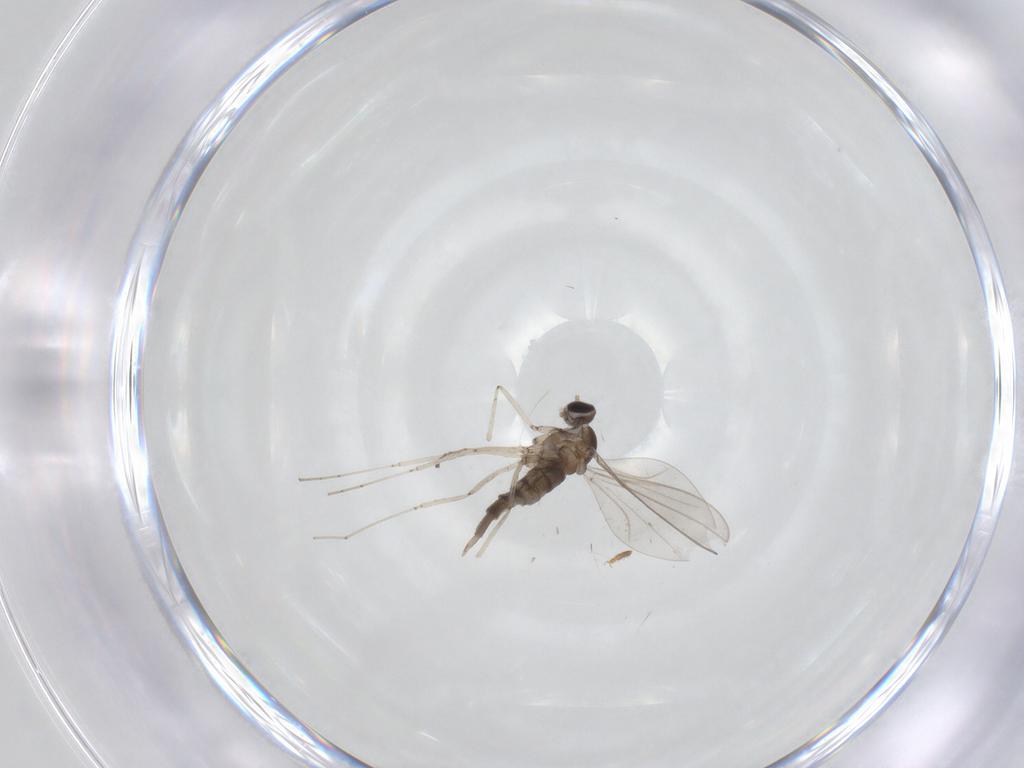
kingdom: Animalia
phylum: Arthropoda
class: Insecta
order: Diptera
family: Cecidomyiidae
